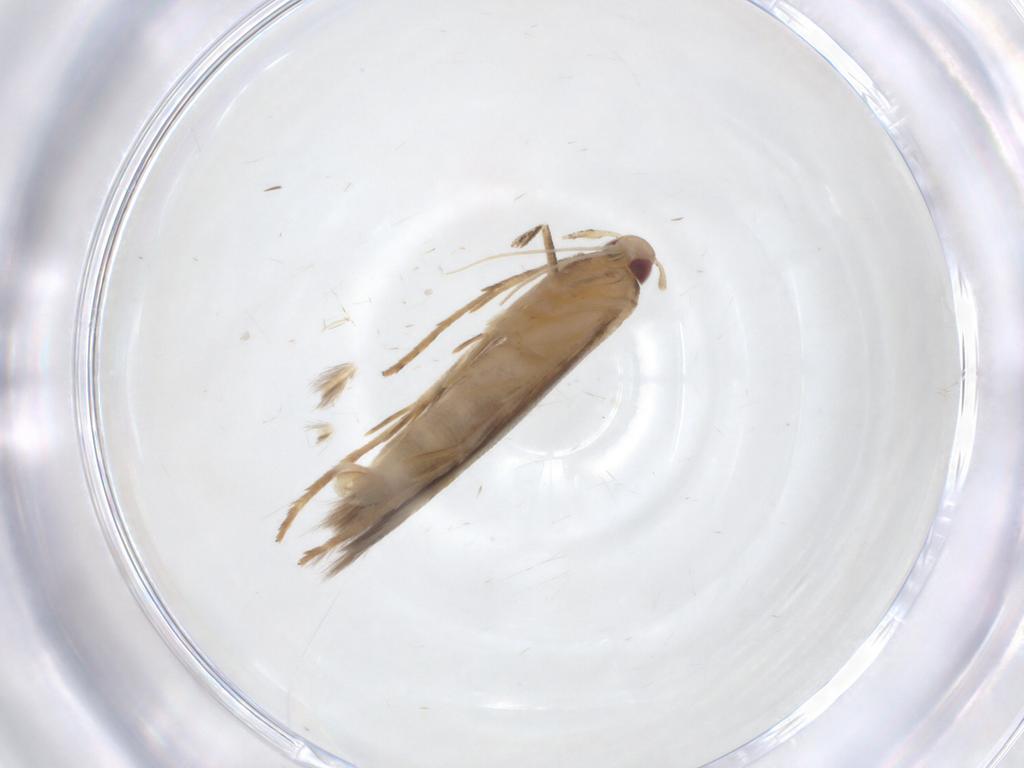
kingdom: Animalia
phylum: Arthropoda
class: Insecta
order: Lepidoptera
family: Cosmopterigidae
